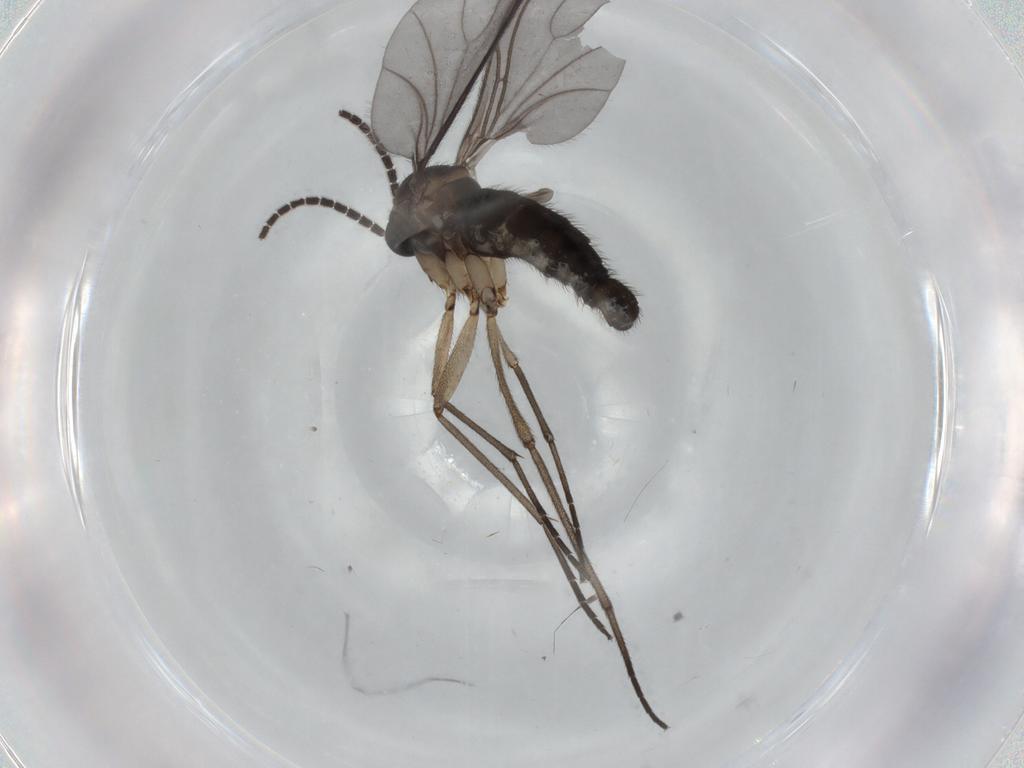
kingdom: Animalia
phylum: Arthropoda
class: Insecta
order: Diptera
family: Sciaridae
